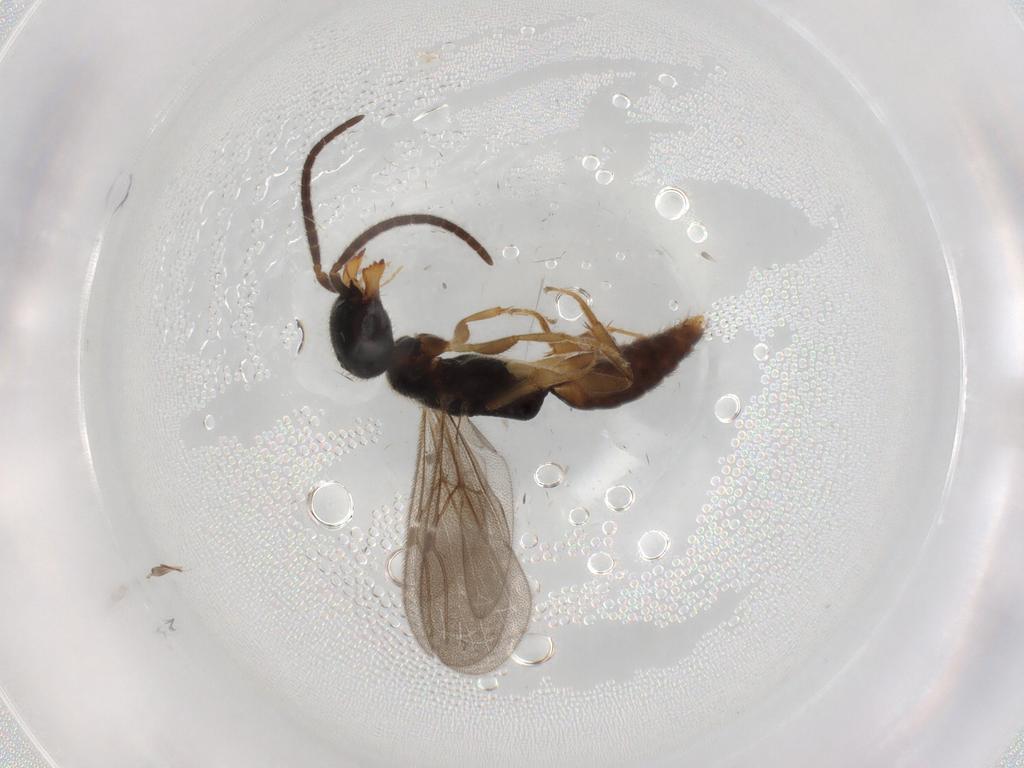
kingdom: Animalia
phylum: Arthropoda
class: Insecta
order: Hymenoptera
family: Bethylidae
